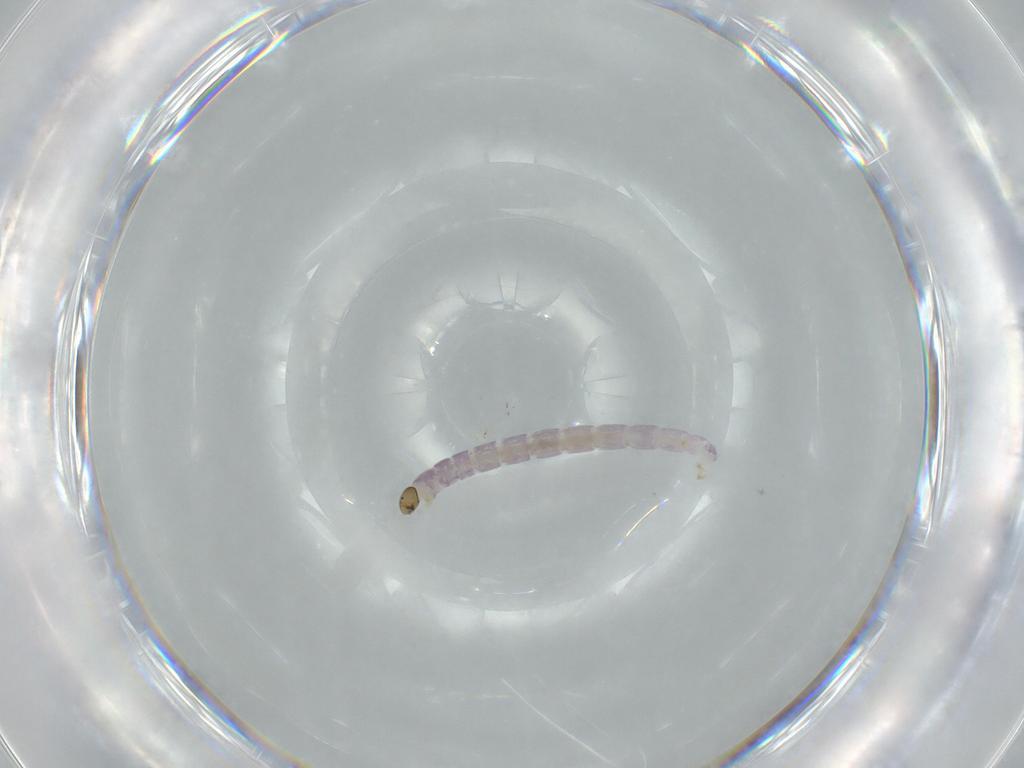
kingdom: Animalia
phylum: Arthropoda
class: Insecta
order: Diptera
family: Chironomidae
